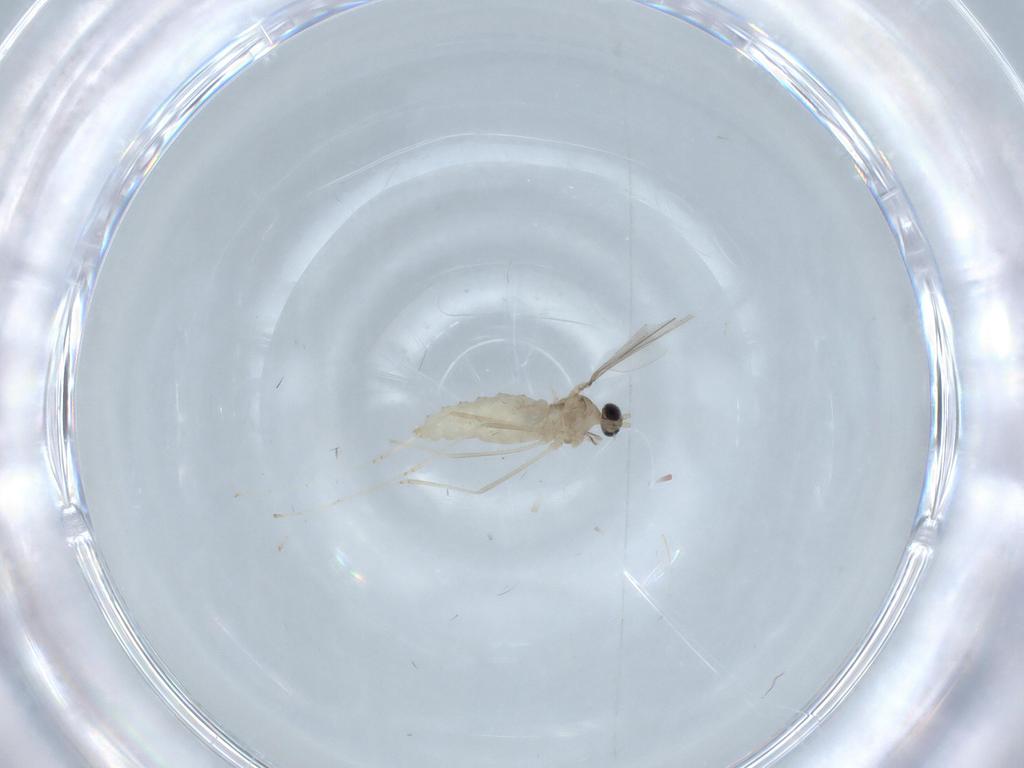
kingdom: Animalia
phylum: Arthropoda
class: Insecta
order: Diptera
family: Cecidomyiidae
